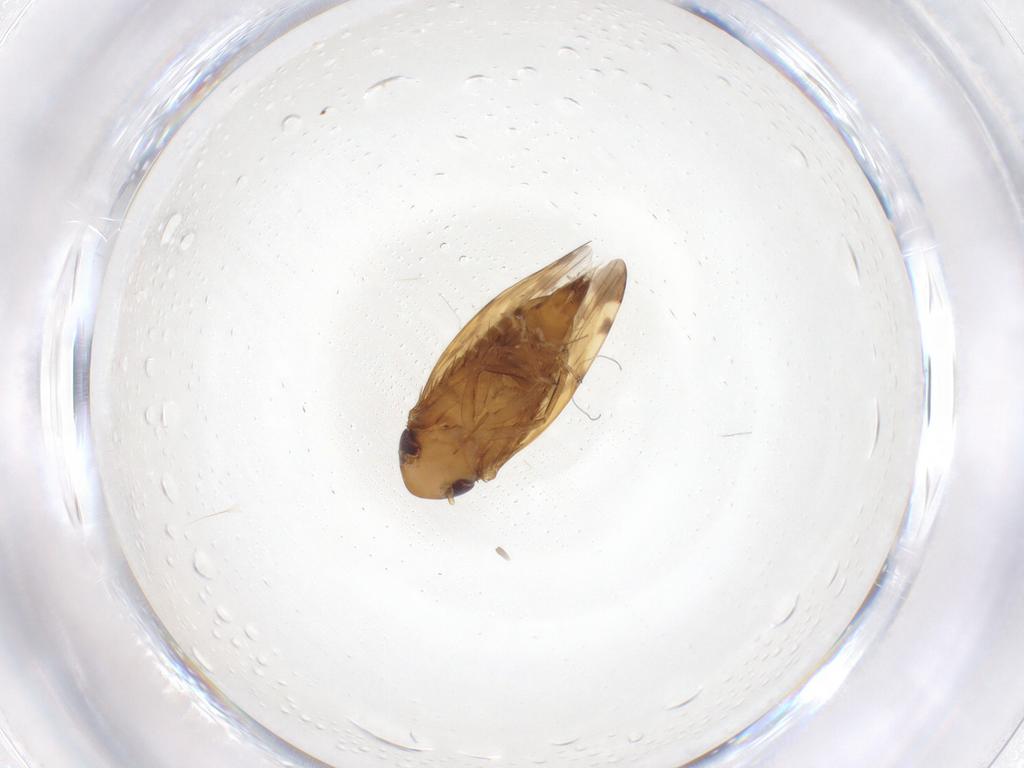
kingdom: Animalia
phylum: Arthropoda
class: Insecta
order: Hemiptera
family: Cicadellidae
